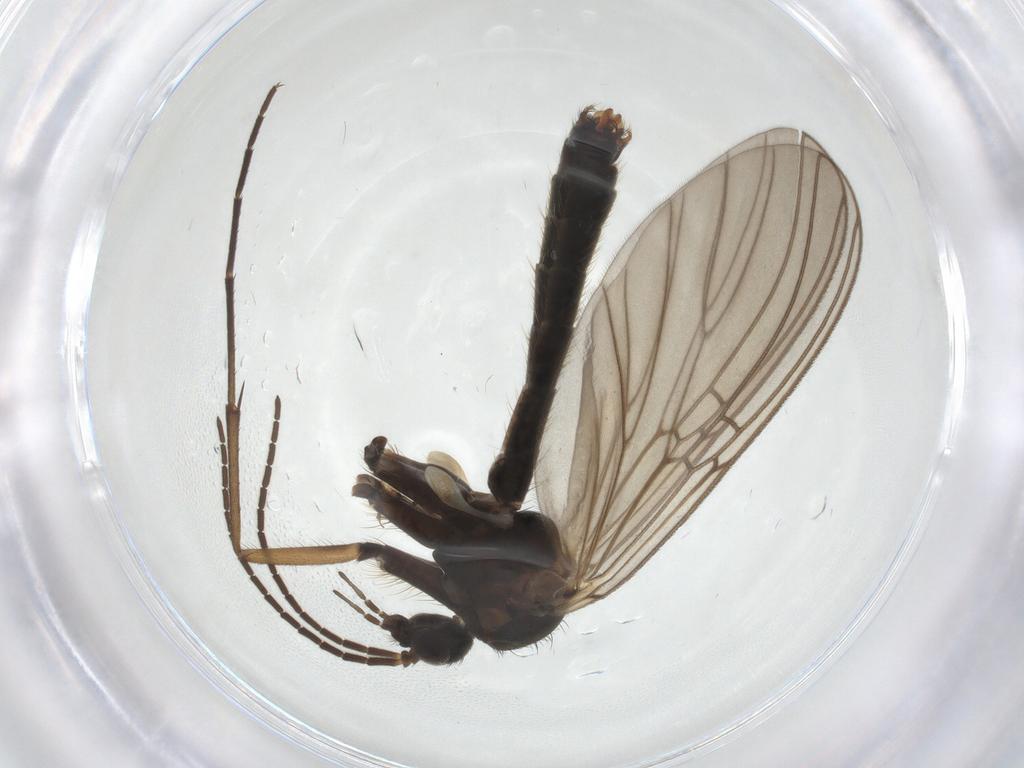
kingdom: Animalia
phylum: Arthropoda
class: Insecta
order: Diptera
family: Mycetophilidae
